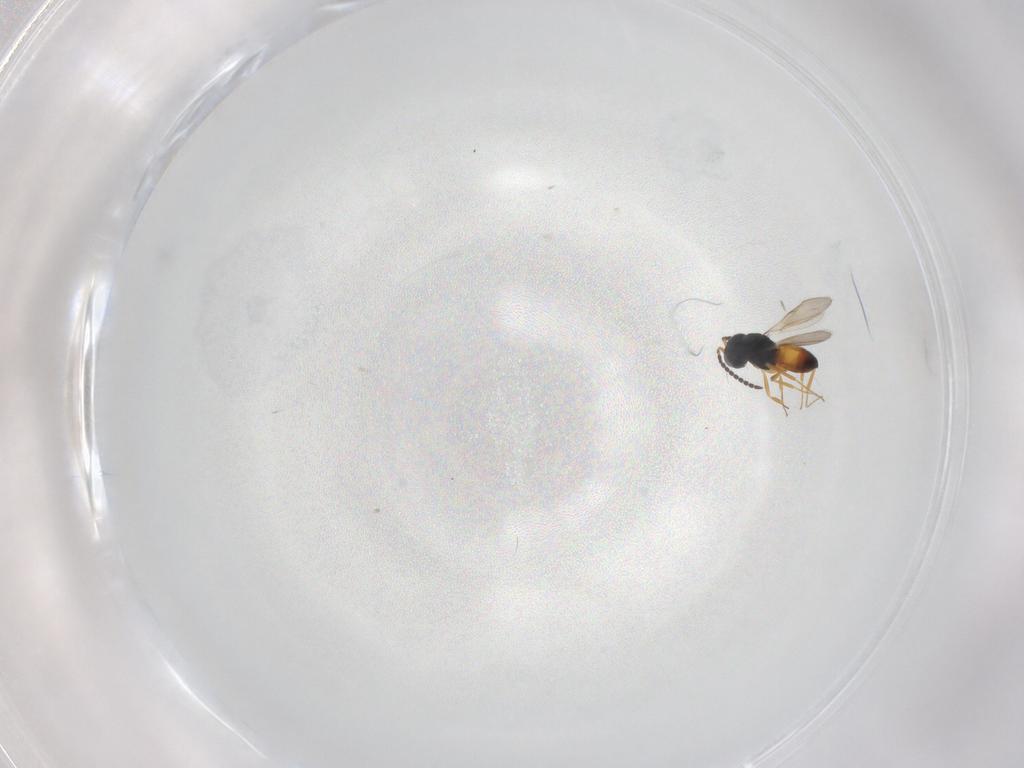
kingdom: Animalia
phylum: Arthropoda
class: Insecta
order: Hymenoptera
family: Scelionidae
